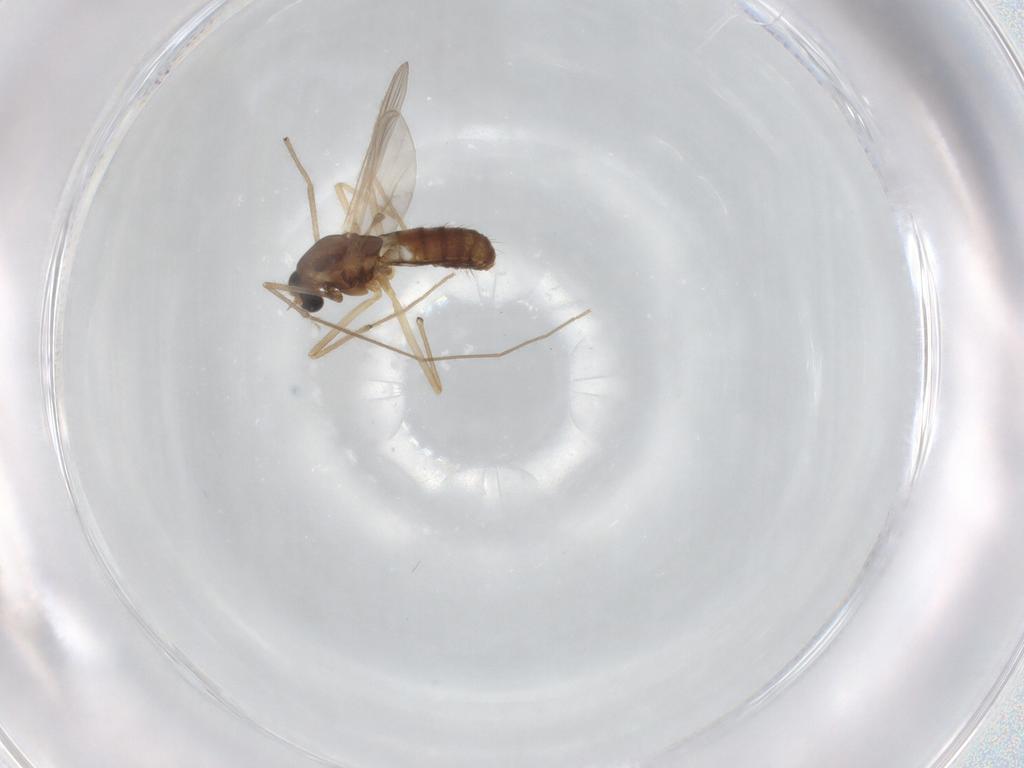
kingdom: Animalia
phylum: Arthropoda
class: Insecta
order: Diptera
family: Chironomidae
